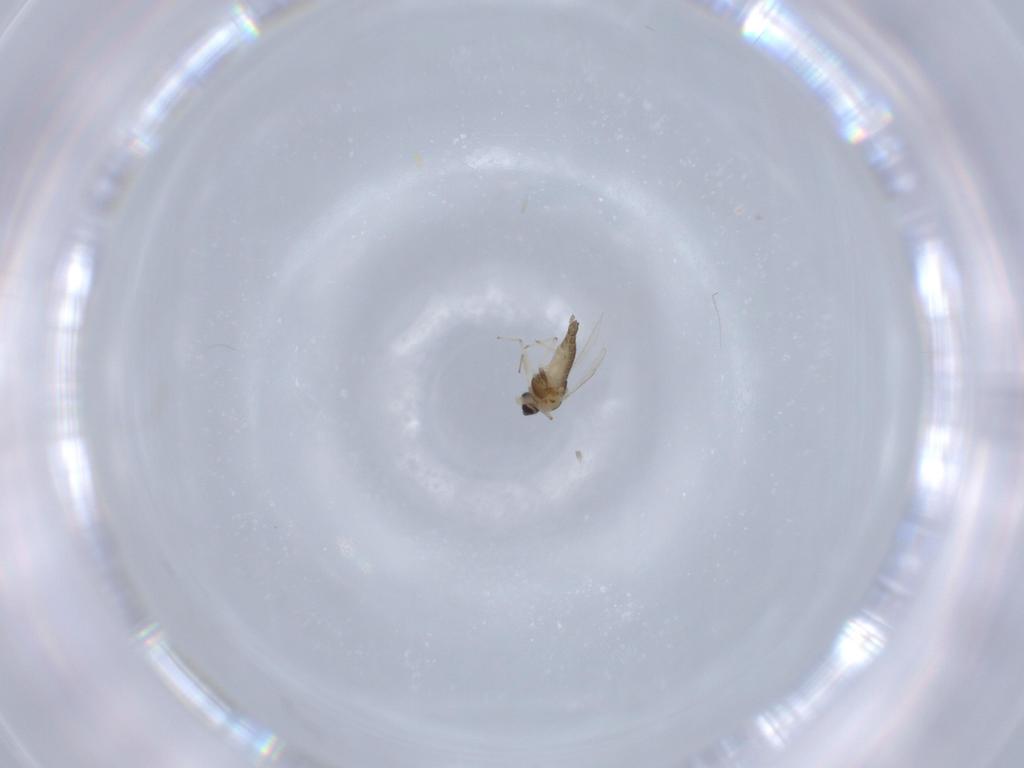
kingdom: Animalia
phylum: Arthropoda
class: Insecta
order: Diptera
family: Chironomidae
